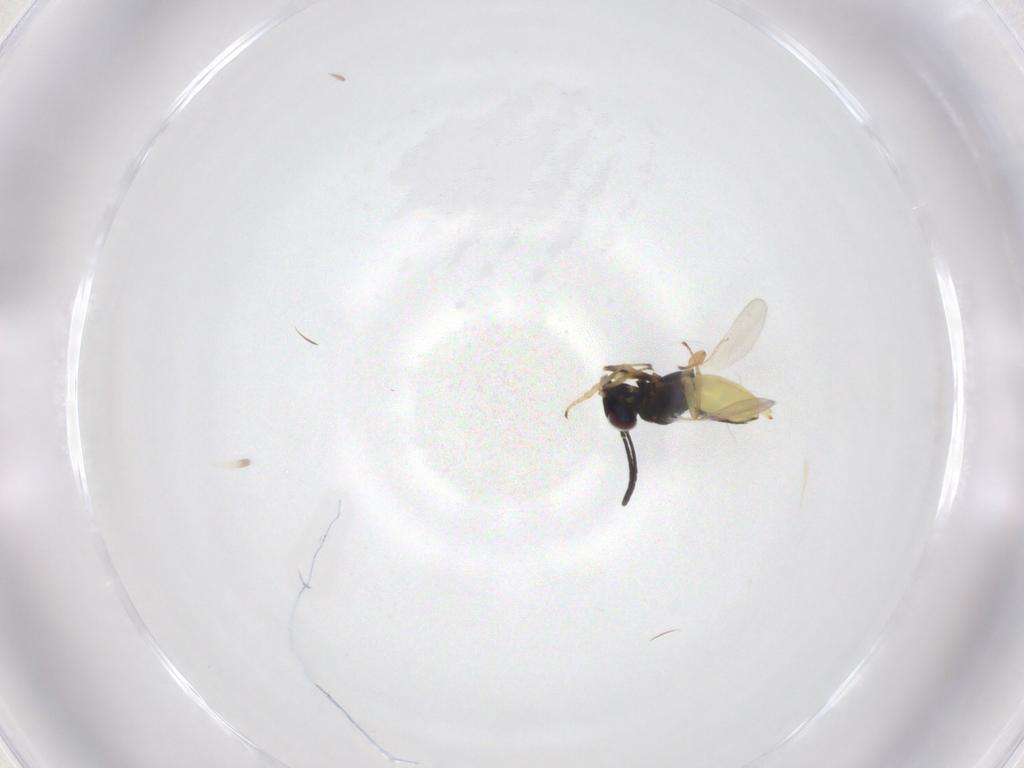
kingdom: Animalia
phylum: Arthropoda
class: Insecta
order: Hymenoptera
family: Encyrtidae
